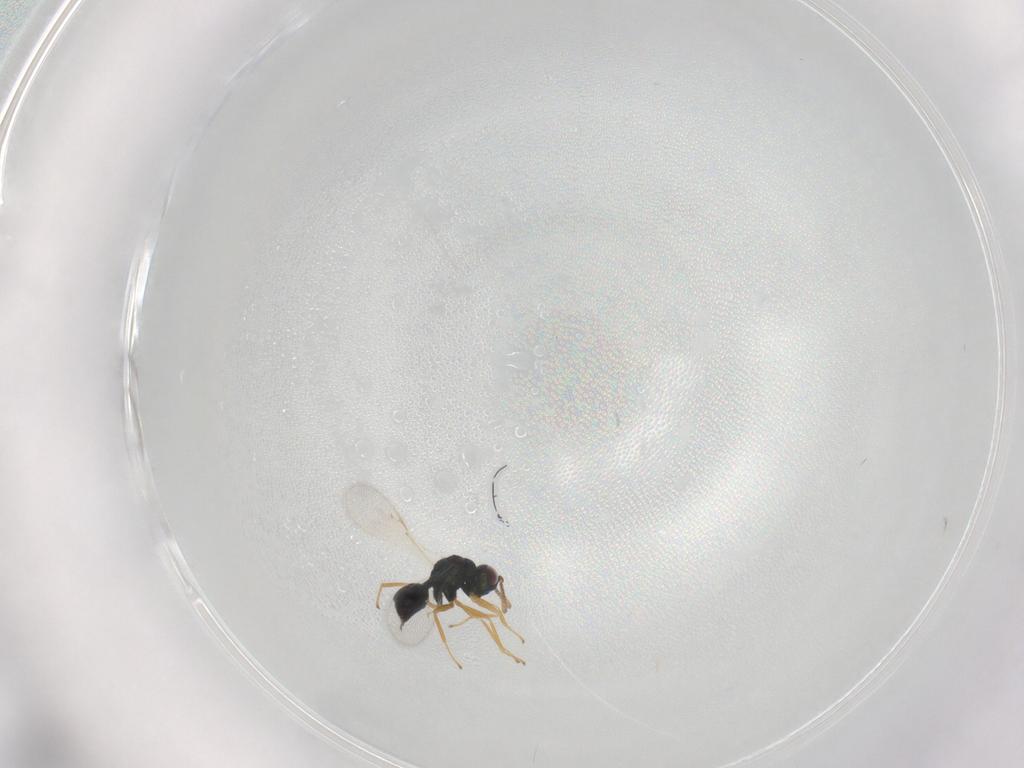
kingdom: Animalia
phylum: Arthropoda
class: Insecta
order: Hymenoptera
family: Pteromalidae
